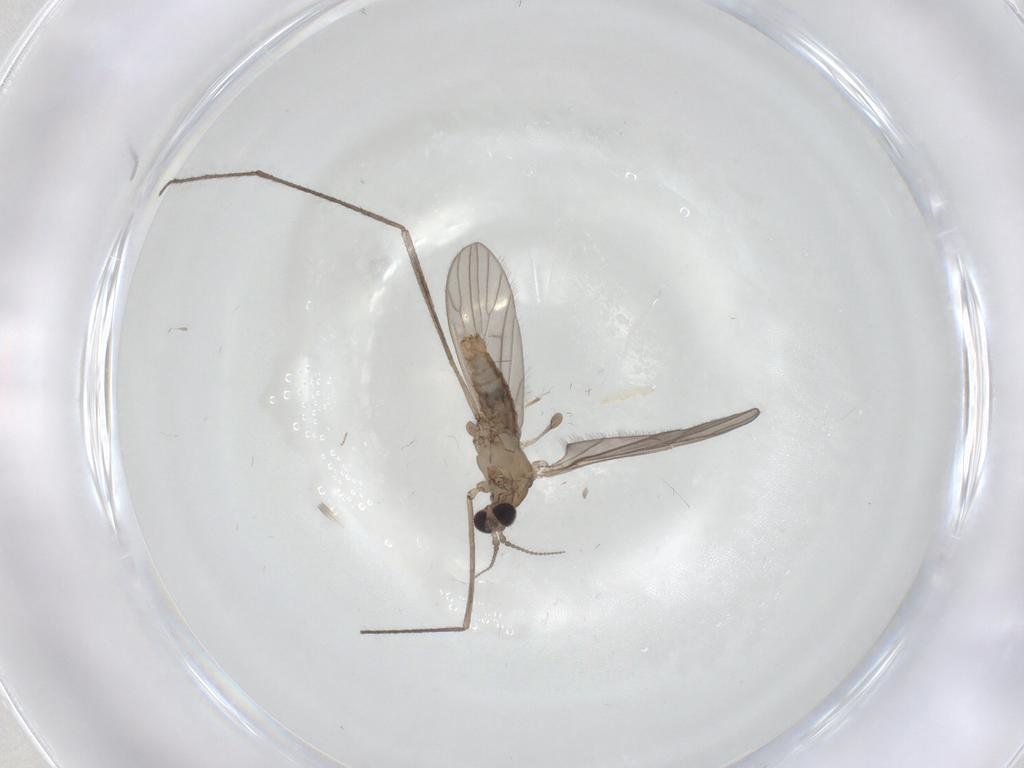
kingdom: Animalia
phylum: Arthropoda
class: Insecta
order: Diptera
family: Limoniidae
